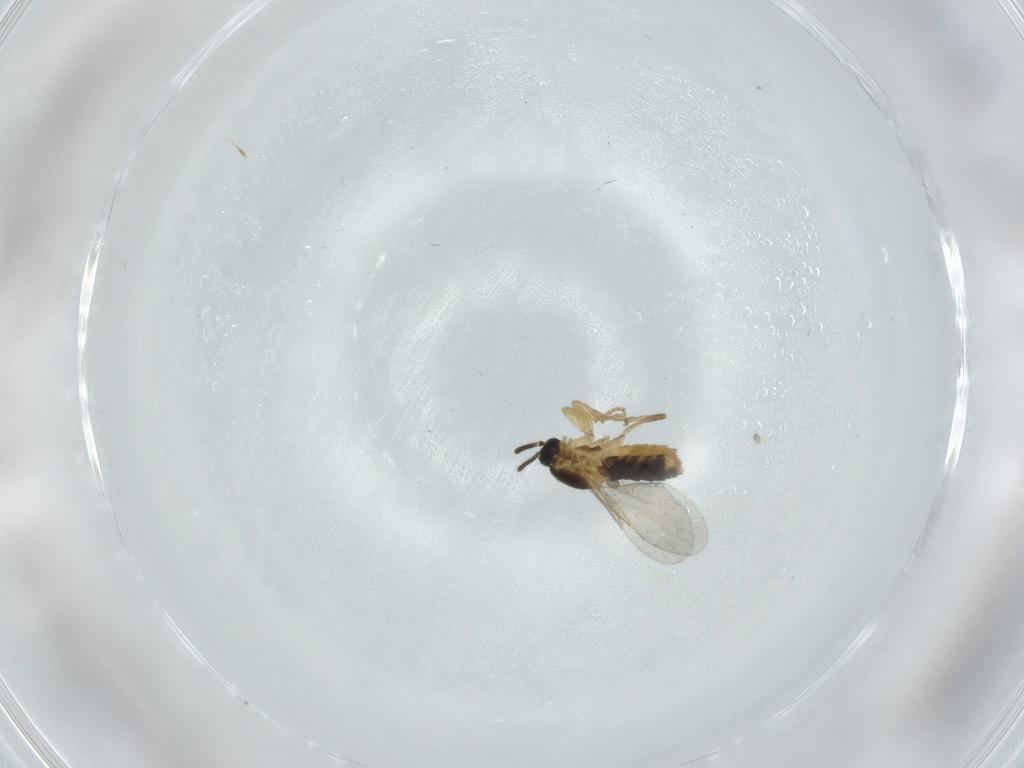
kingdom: Animalia
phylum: Arthropoda
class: Insecta
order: Diptera
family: Scatopsidae
